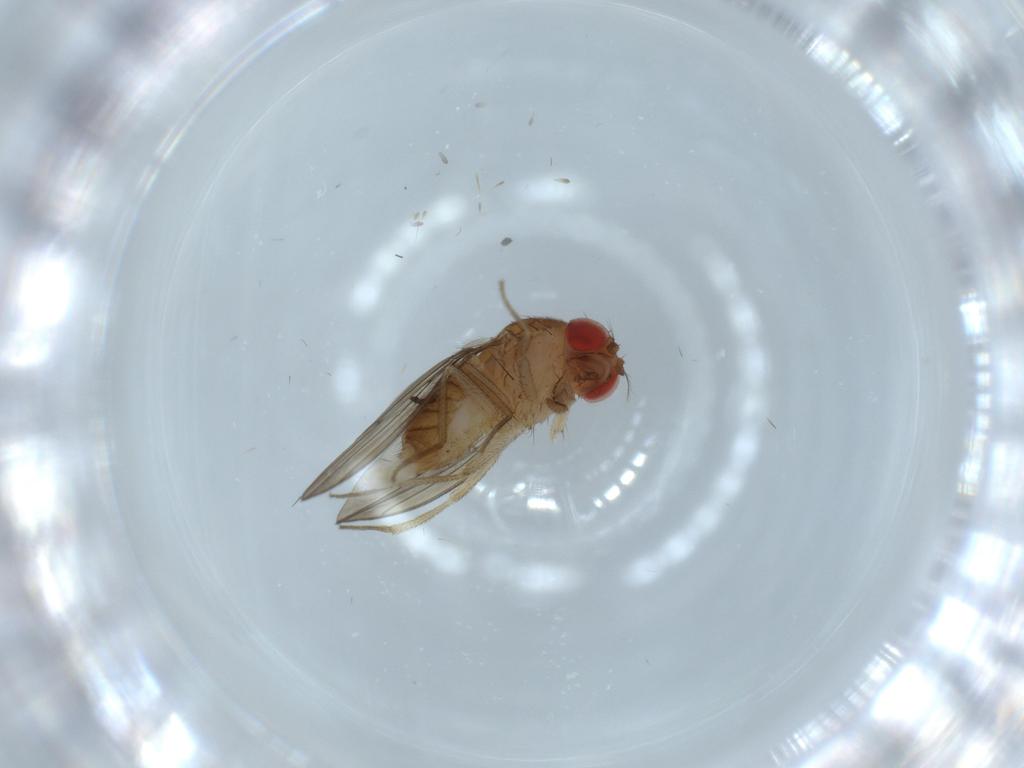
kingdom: Animalia
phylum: Arthropoda
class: Insecta
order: Diptera
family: Drosophilidae
